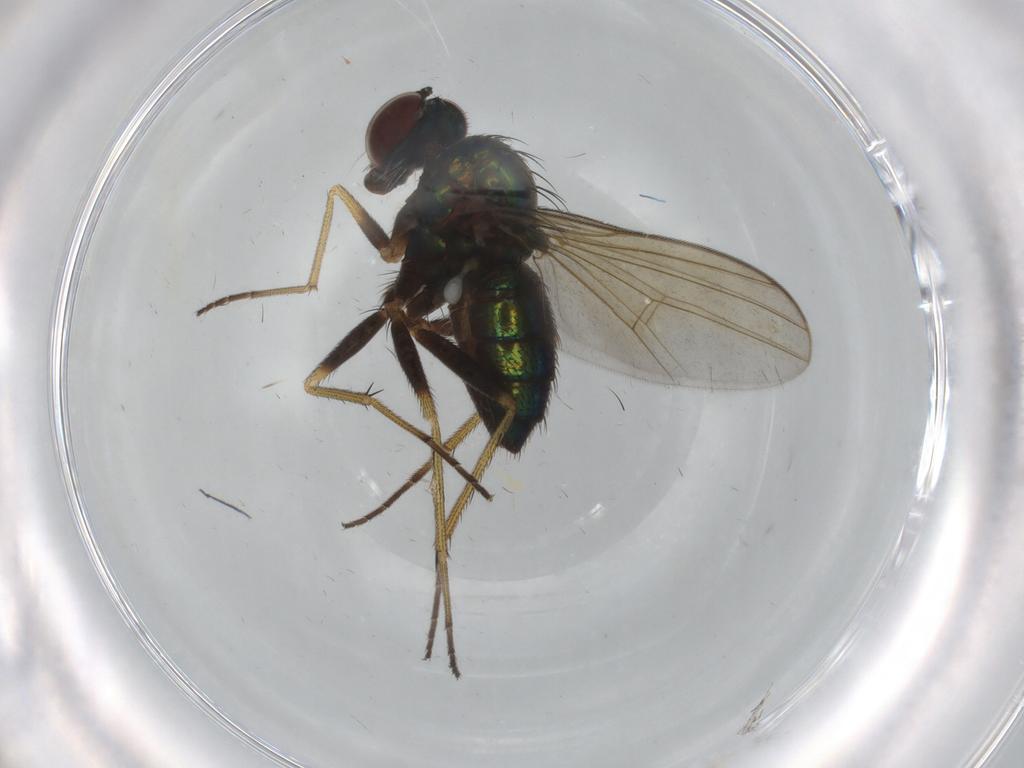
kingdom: Animalia
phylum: Arthropoda
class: Insecta
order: Diptera
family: Dolichopodidae
